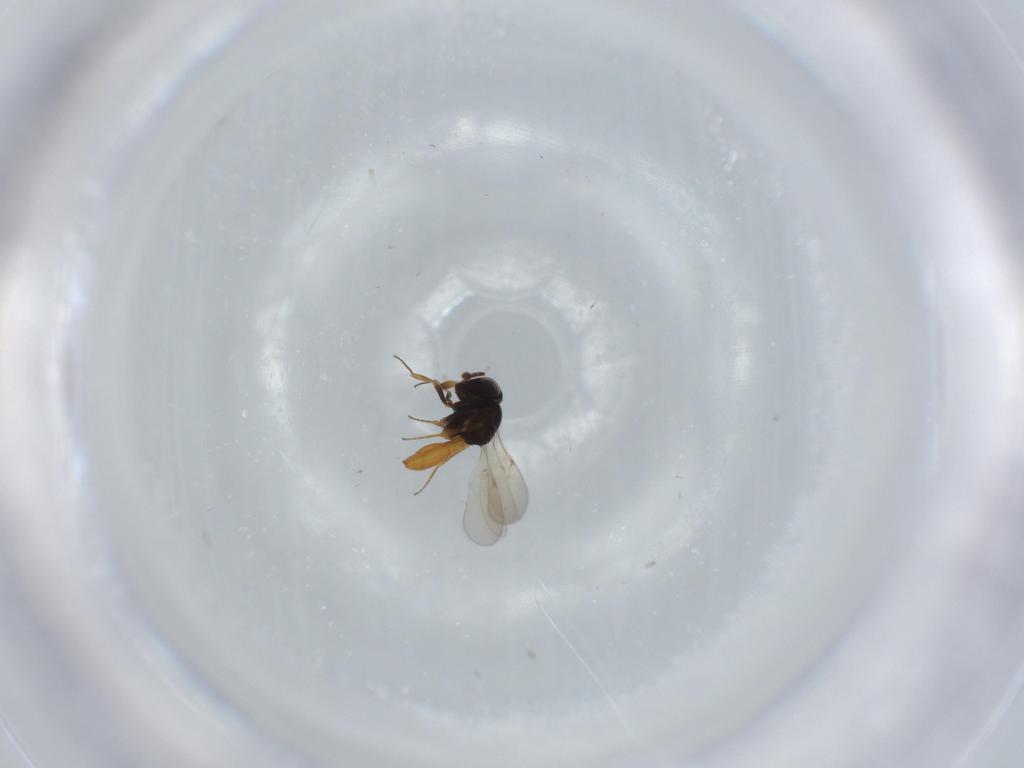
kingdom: Animalia
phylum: Arthropoda
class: Insecta
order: Hymenoptera
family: Scelionidae
